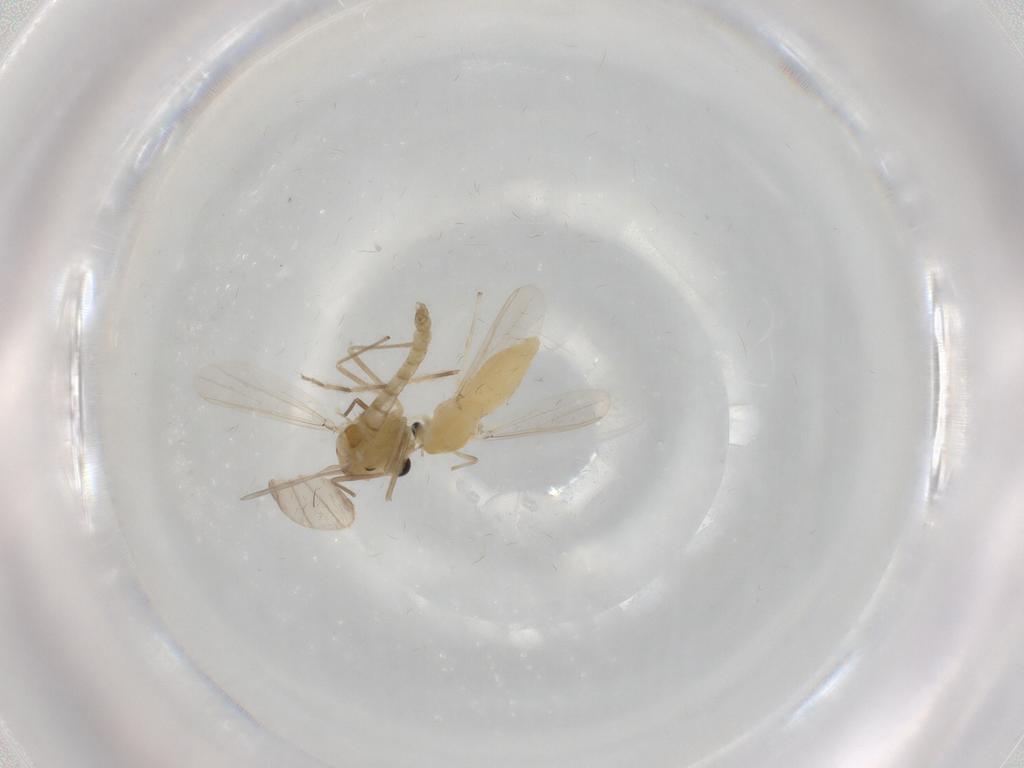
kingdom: Animalia
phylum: Arthropoda
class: Insecta
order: Diptera
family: Chironomidae
